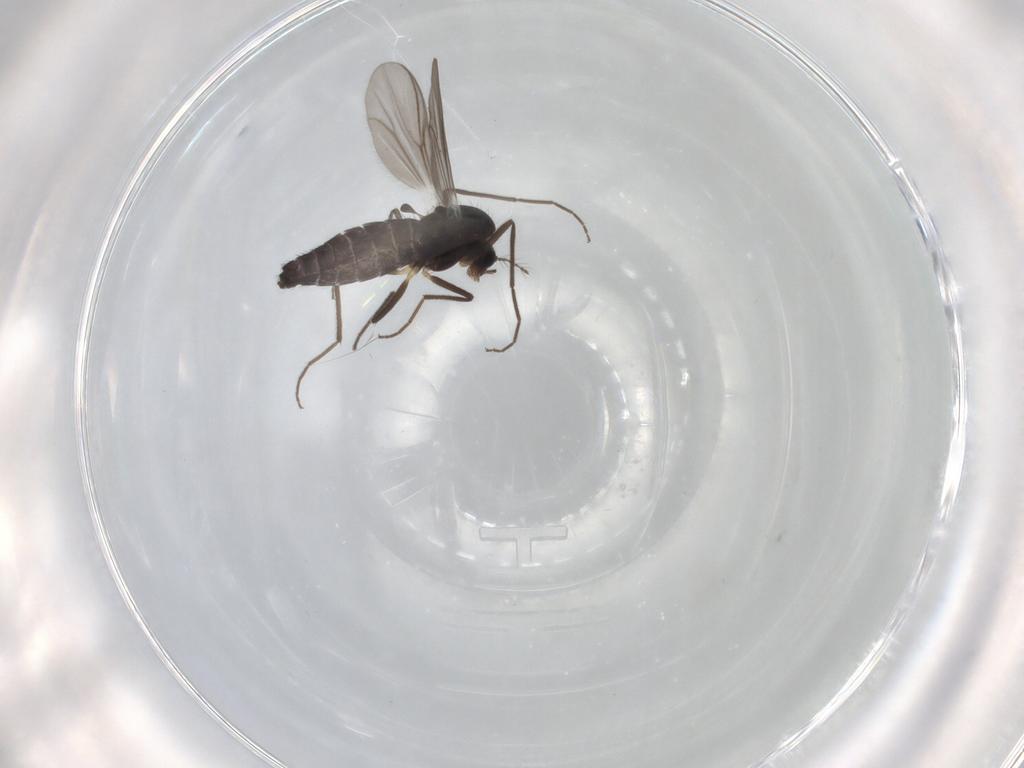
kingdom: Animalia
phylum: Arthropoda
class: Insecta
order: Diptera
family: Chironomidae
